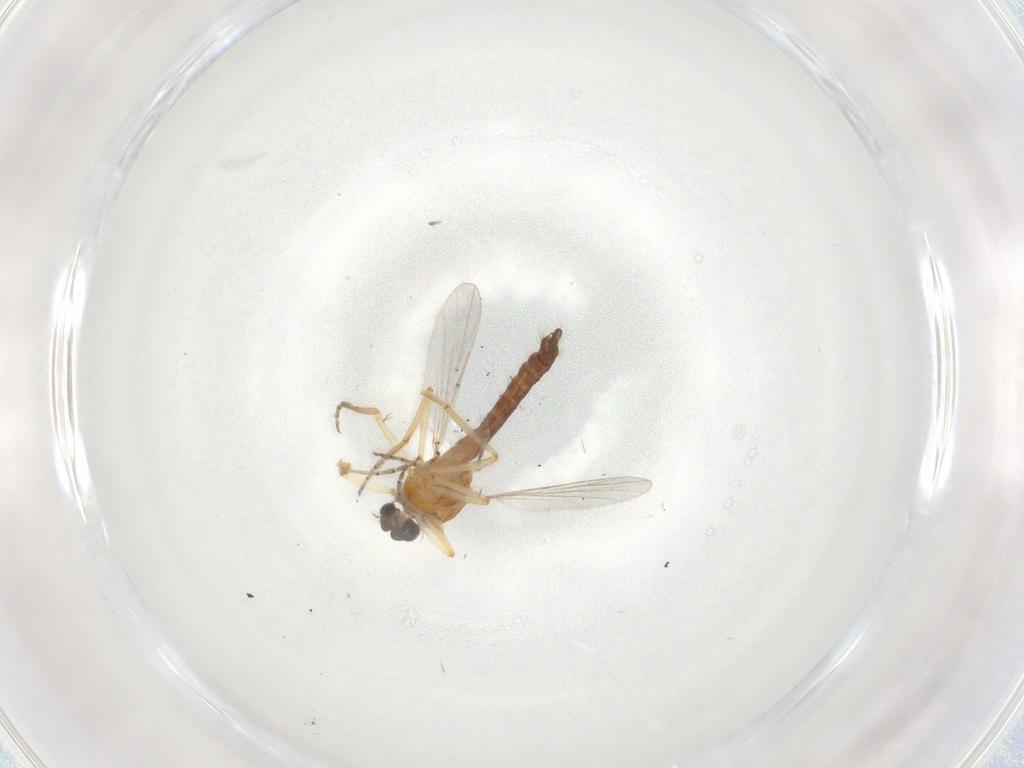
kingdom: Animalia
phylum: Arthropoda
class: Insecta
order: Diptera
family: Ceratopogonidae
